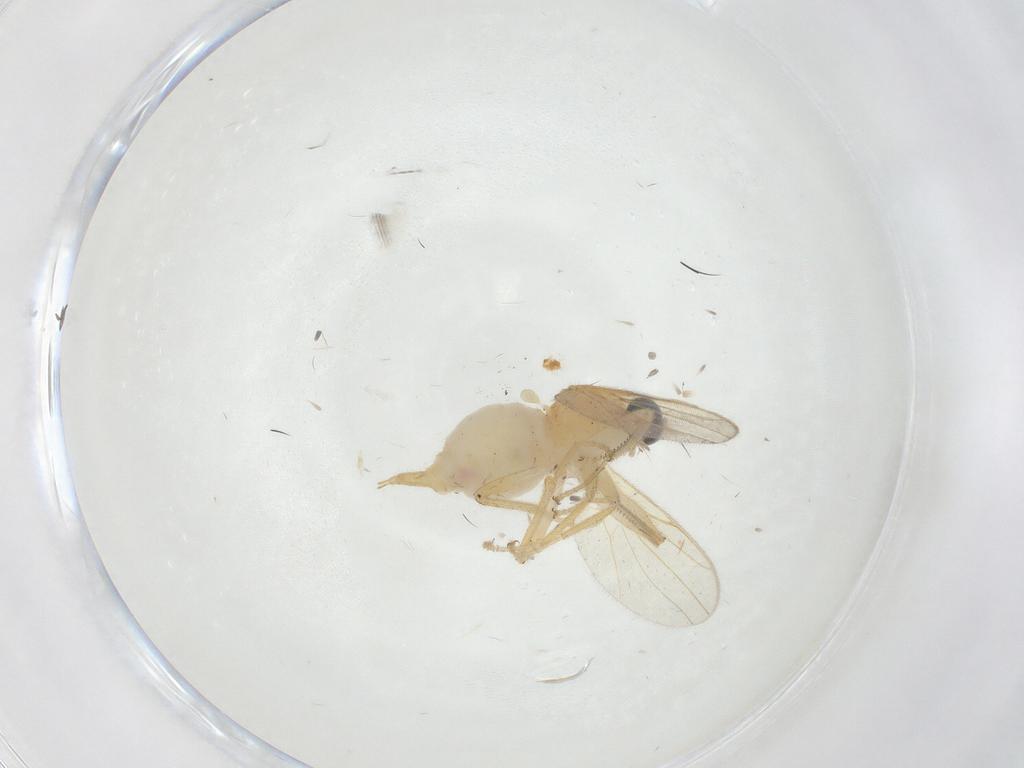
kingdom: Animalia
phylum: Arthropoda
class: Insecta
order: Diptera
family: Cecidomyiidae
